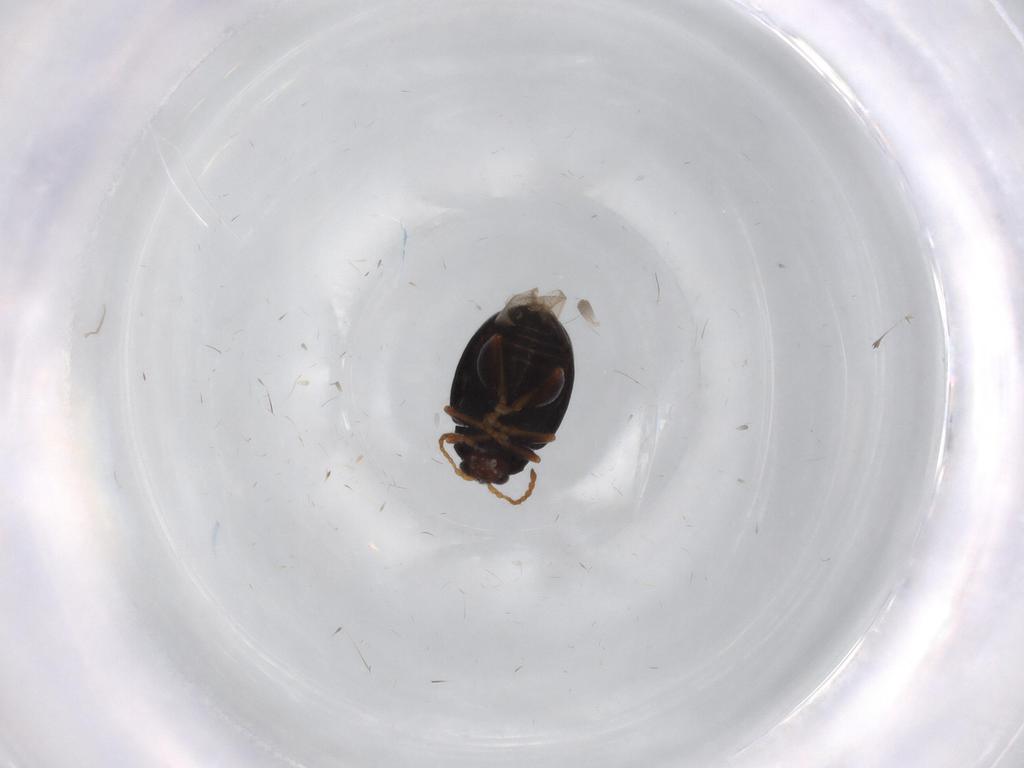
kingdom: Animalia
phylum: Arthropoda
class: Insecta
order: Coleoptera
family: Chrysomelidae
